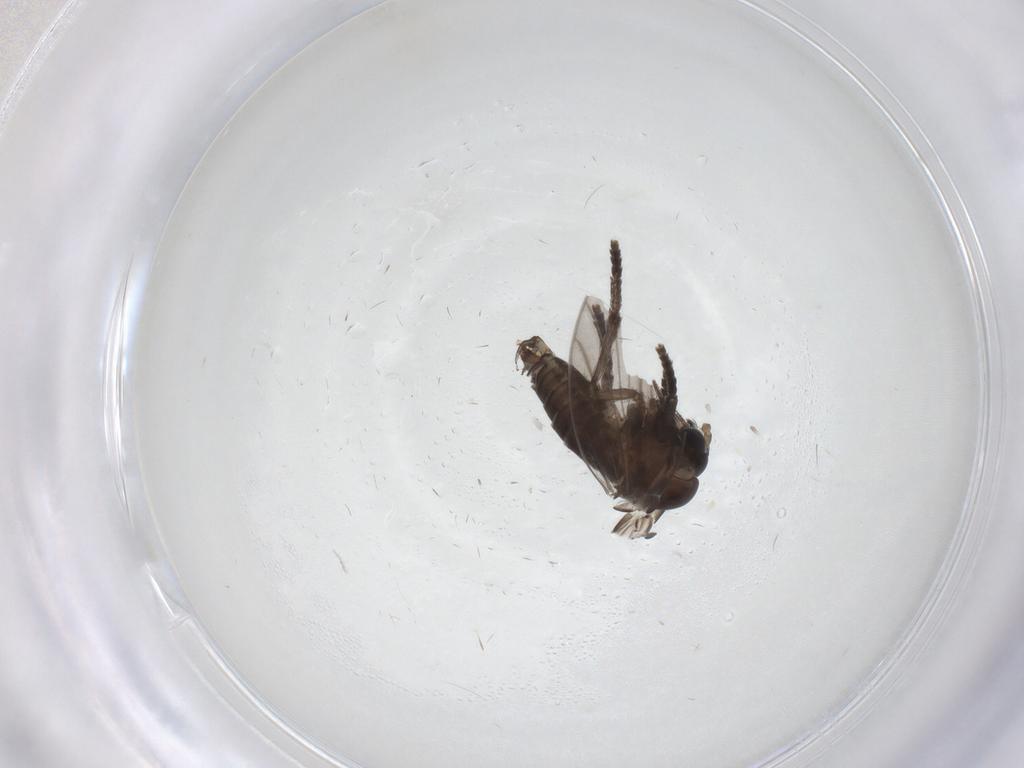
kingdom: Animalia
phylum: Arthropoda
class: Insecta
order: Diptera
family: Psychodidae
